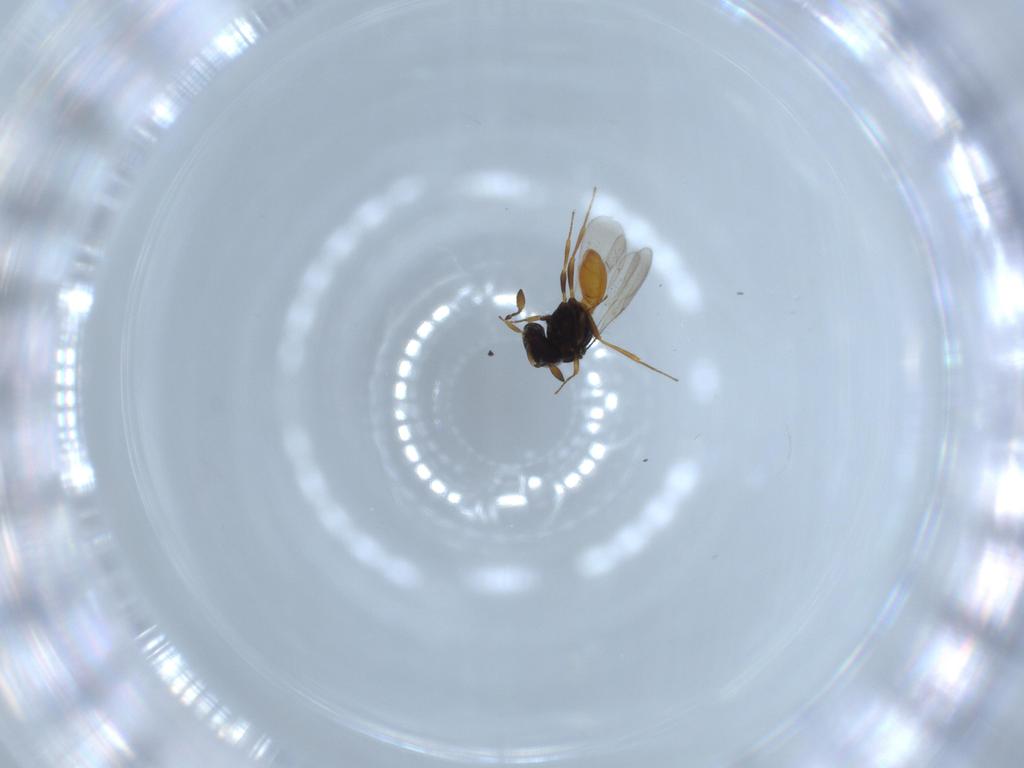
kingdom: Animalia
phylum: Arthropoda
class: Insecta
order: Hymenoptera
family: Scelionidae
